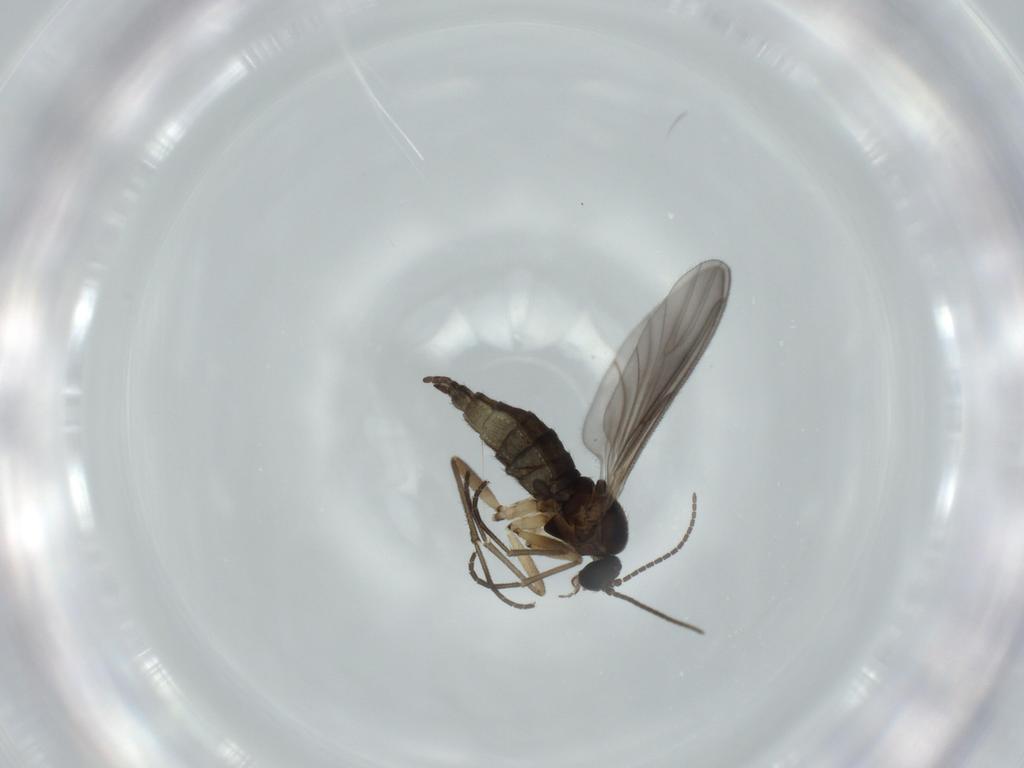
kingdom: Animalia
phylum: Arthropoda
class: Insecta
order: Diptera
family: Sciaridae
